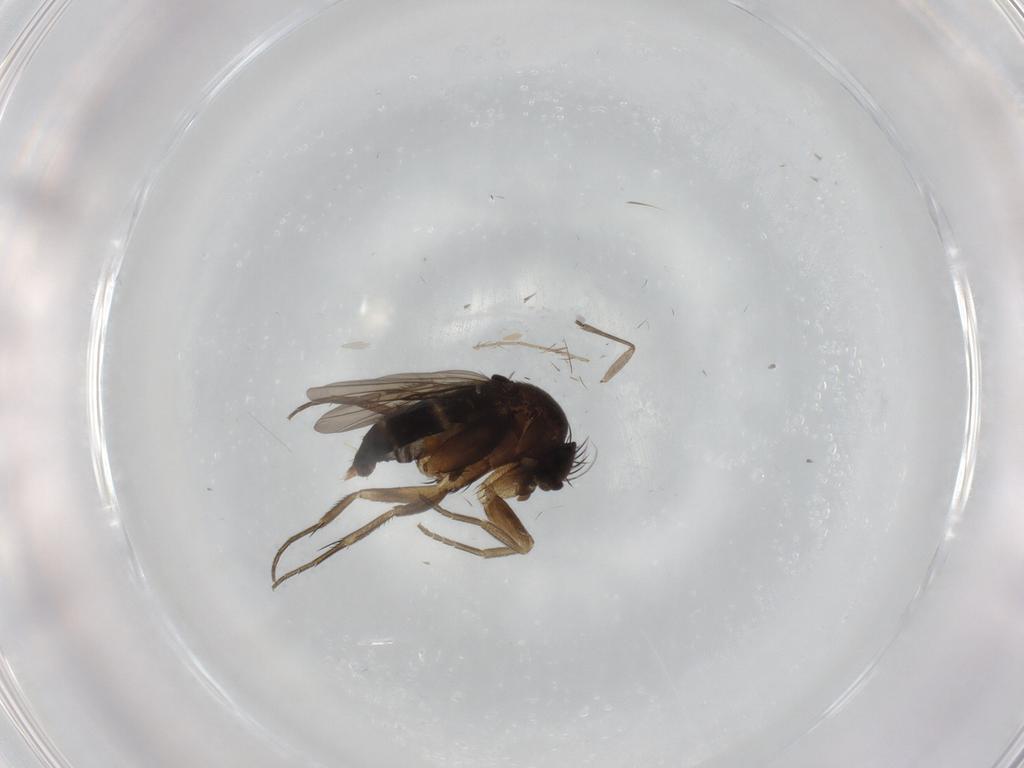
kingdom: Animalia
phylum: Arthropoda
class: Insecta
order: Diptera
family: Phoridae
